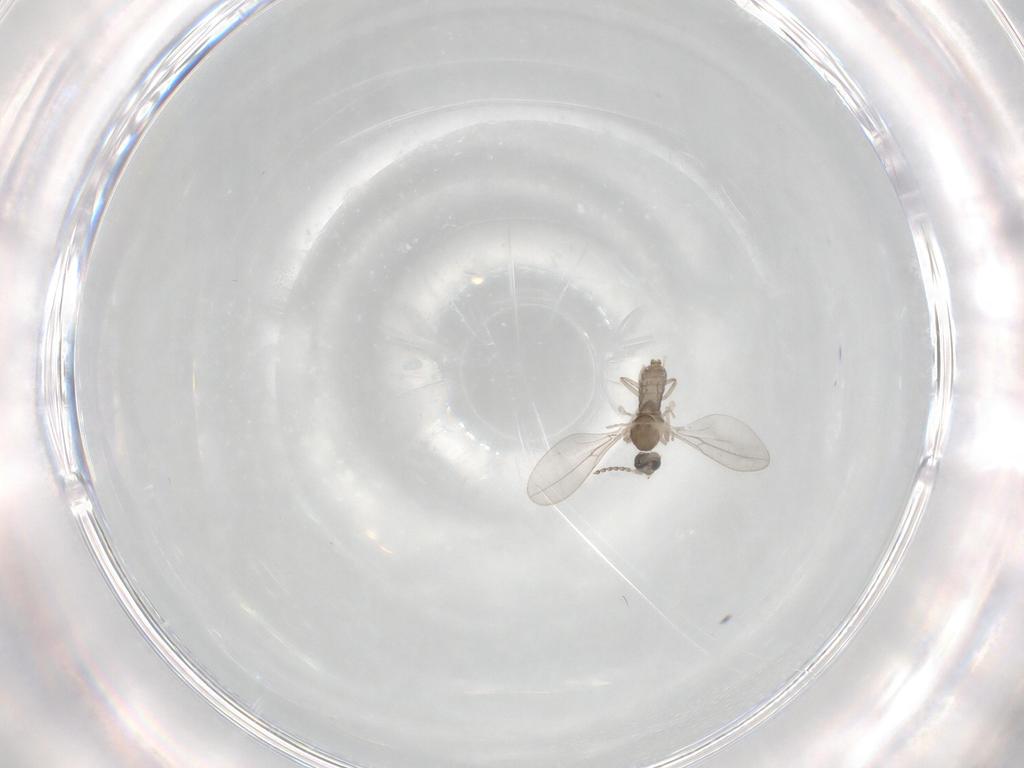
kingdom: Animalia
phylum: Arthropoda
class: Insecta
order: Diptera
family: Cecidomyiidae
